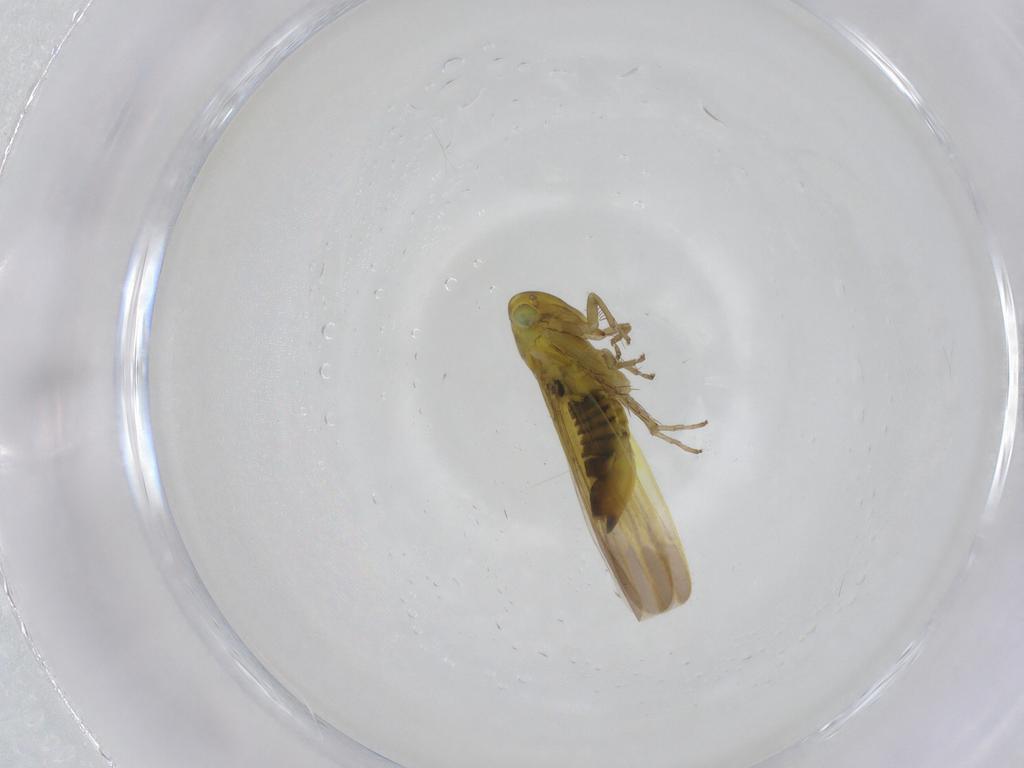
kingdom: Animalia
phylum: Arthropoda
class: Insecta
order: Hemiptera
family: Cicadellidae
